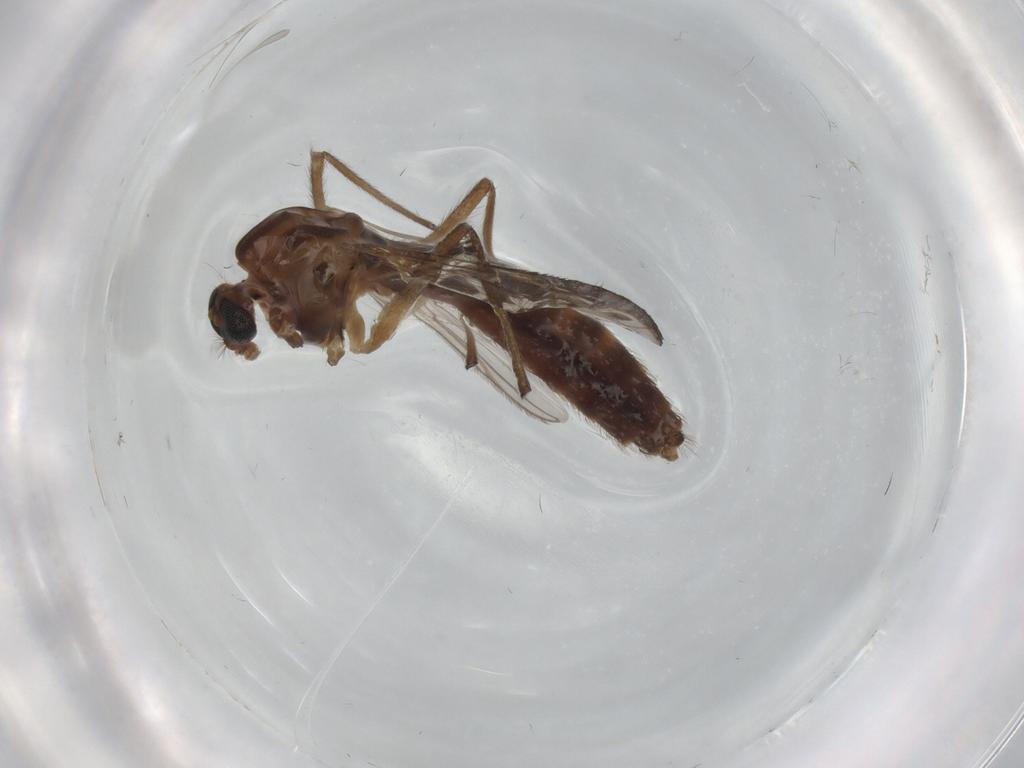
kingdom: Animalia
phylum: Arthropoda
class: Insecta
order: Diptera
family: Chironomidae
